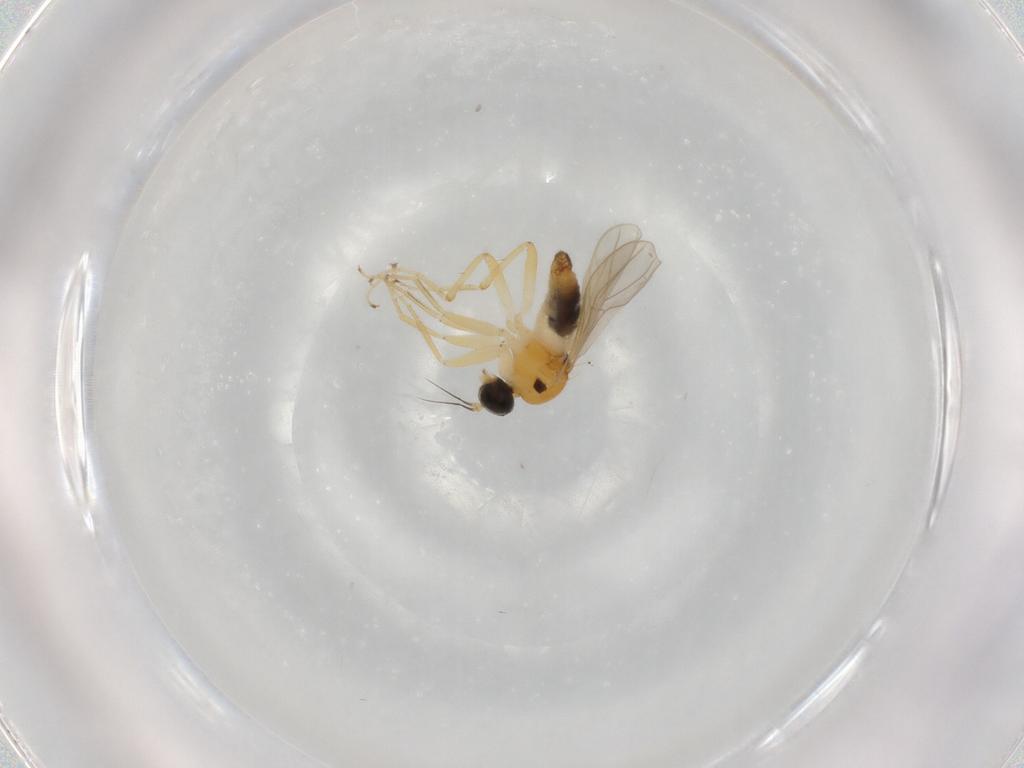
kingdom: Animalia
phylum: Arthropoda
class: Insecta
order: Diptera
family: Hybotidae
